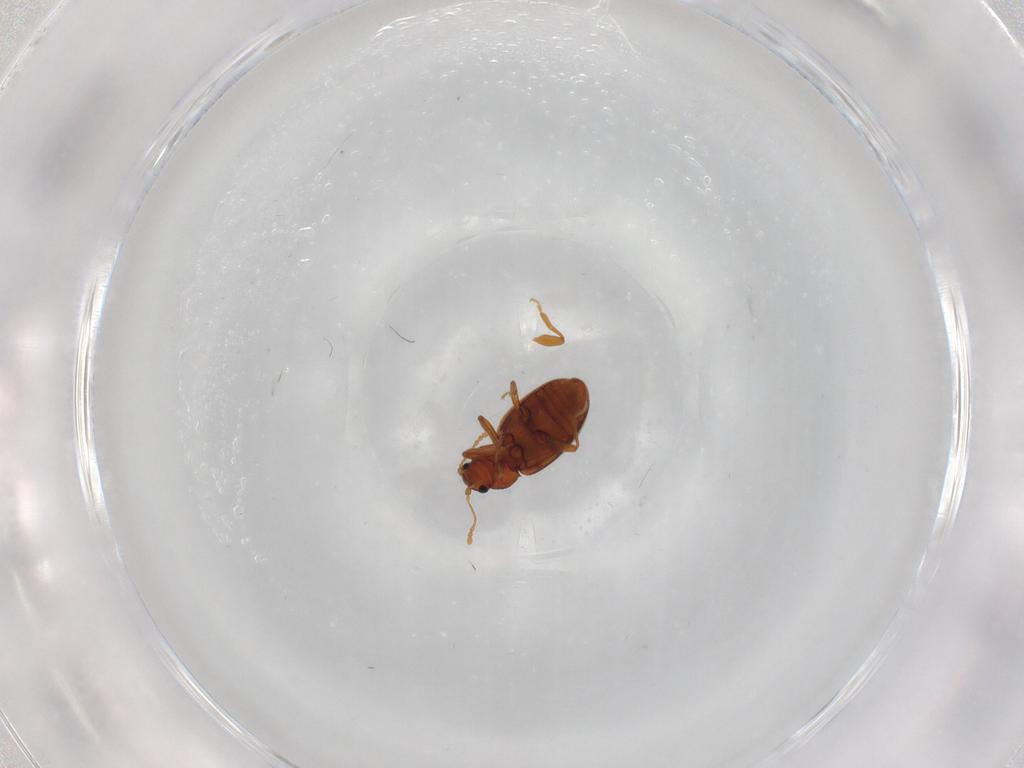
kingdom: Animalia
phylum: Arthropoda
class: Insecta
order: Coleoptera
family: Latridiidae
